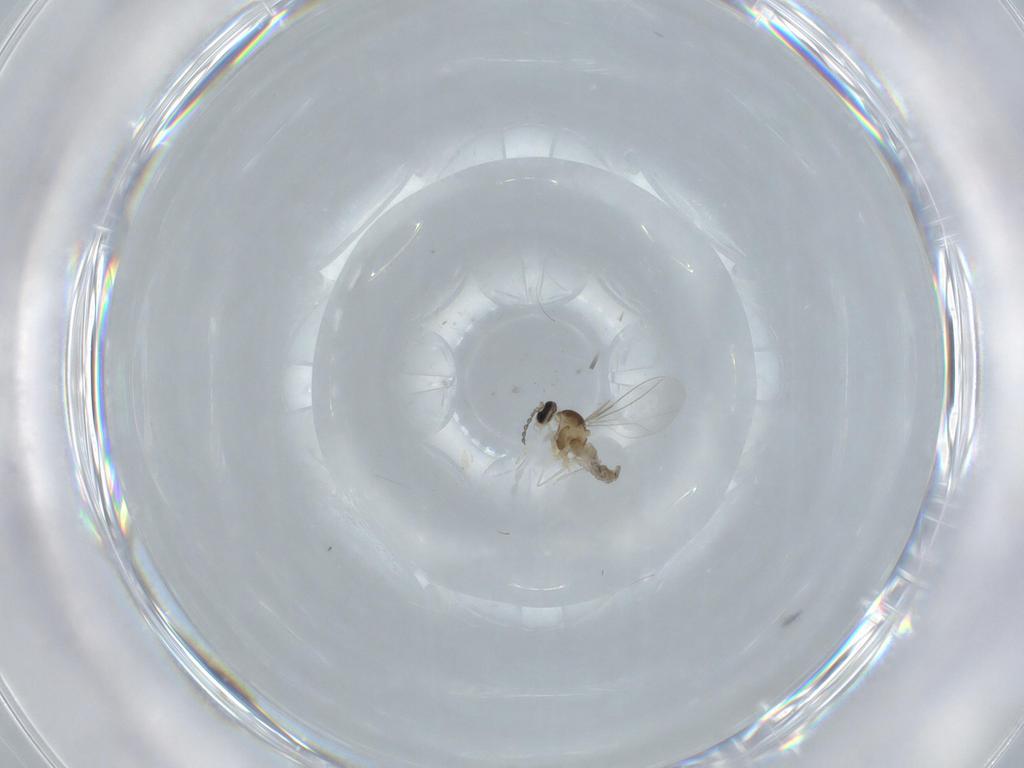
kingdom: Animalia
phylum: Arthropoda
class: Insecta
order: Diptera
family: Cecidomyiidae
